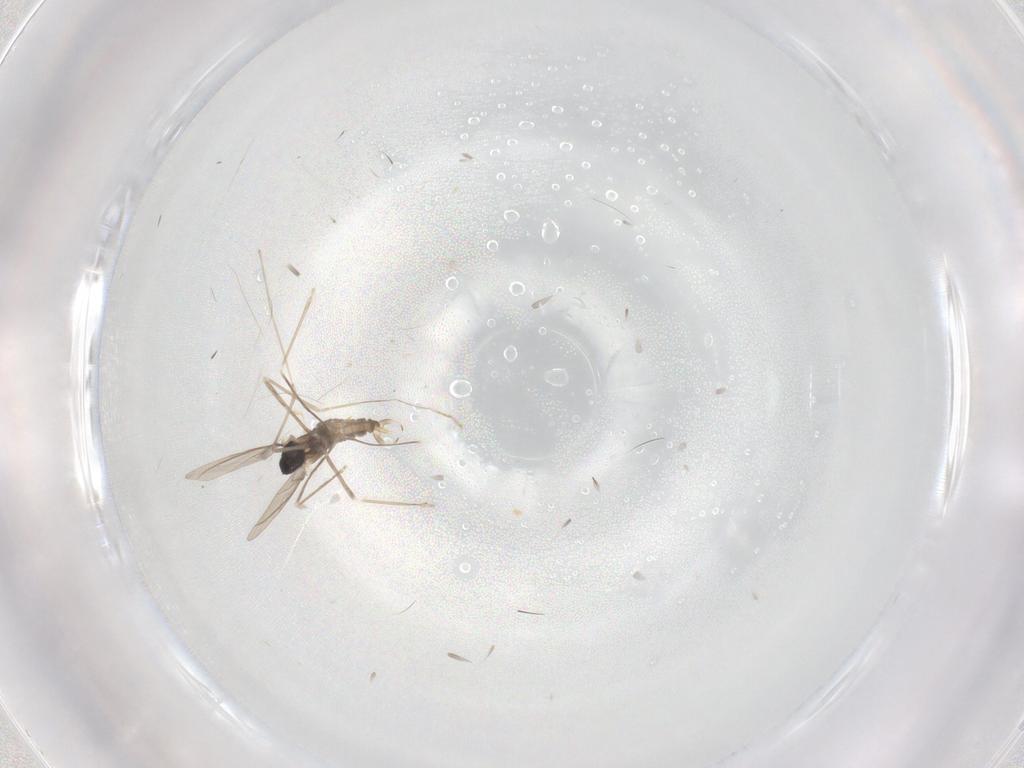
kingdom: Animalia
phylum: Arthropoda
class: Insecta
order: Diptera
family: Cecidomyiidae
